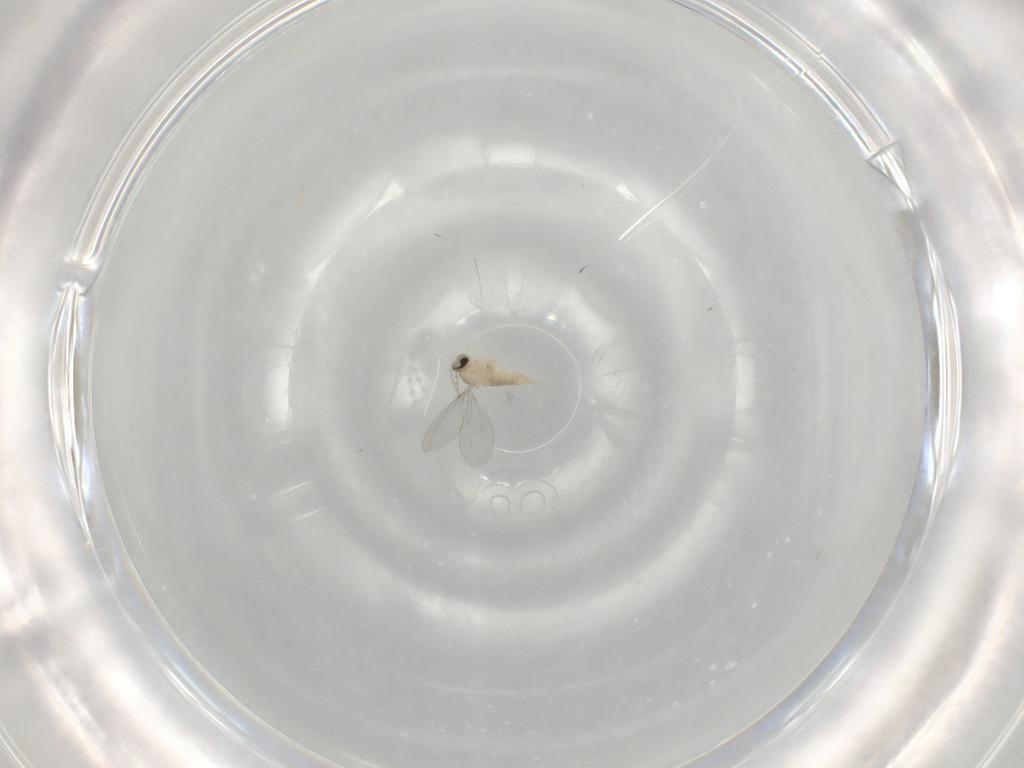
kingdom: Animalia
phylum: Arthropoda
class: Insecta
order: Diptera
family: Cecidomyiidae
